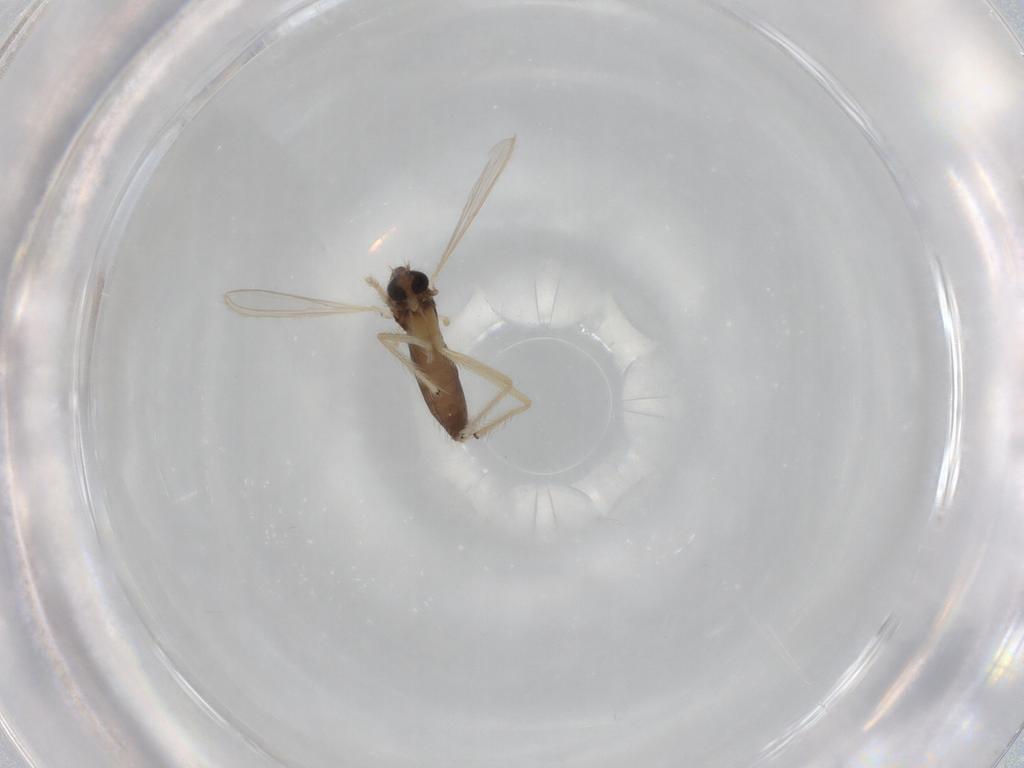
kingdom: Animalia
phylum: Arthropoda
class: Insecta
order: Diptera
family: Chironomidae
